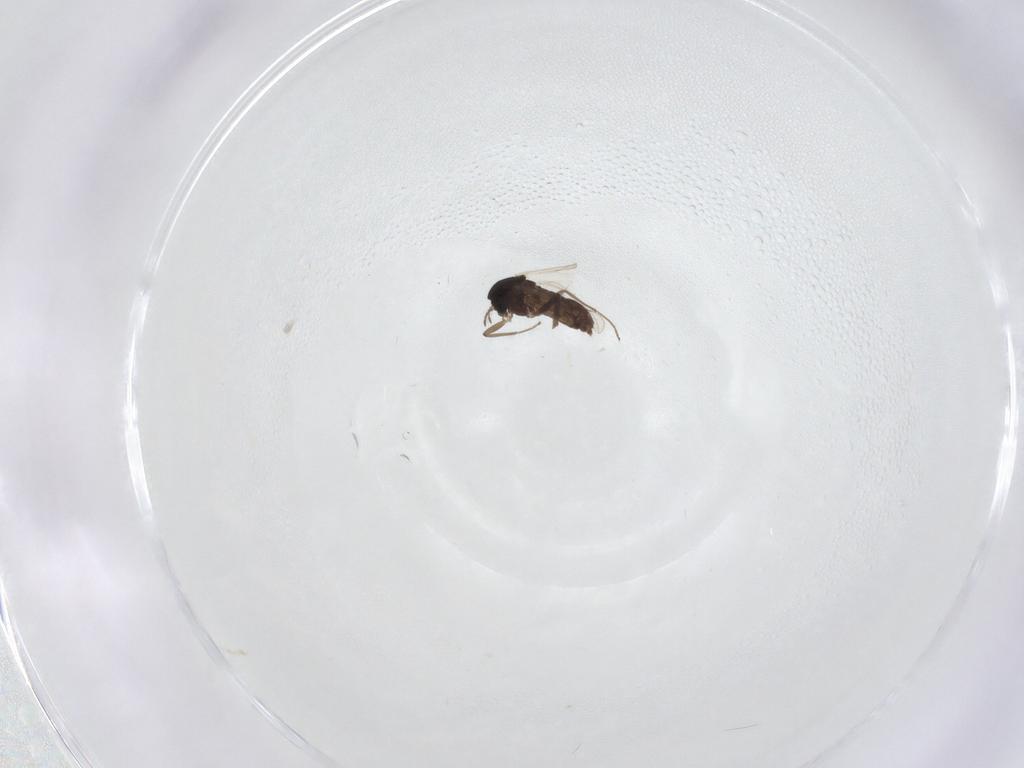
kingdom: Animalia
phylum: Arthropoda
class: Insecta
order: Diptera
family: Chironomidae
